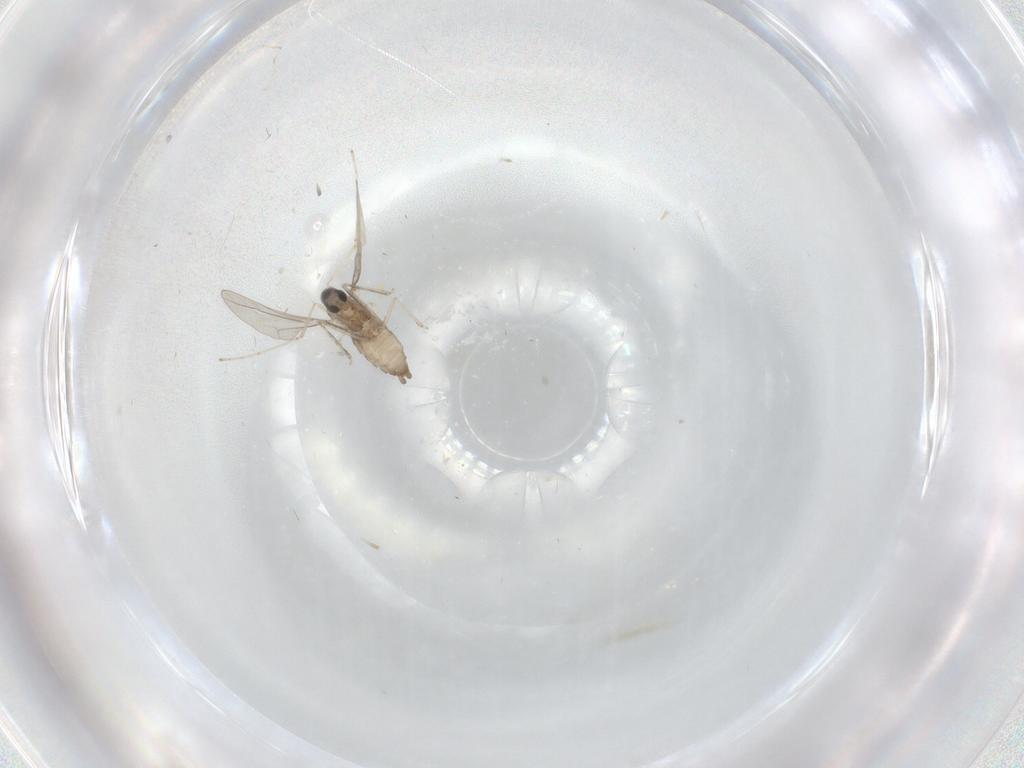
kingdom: Animalia
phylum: Arthropoda
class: Insecta
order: Diptera
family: Cecidomyiidae
